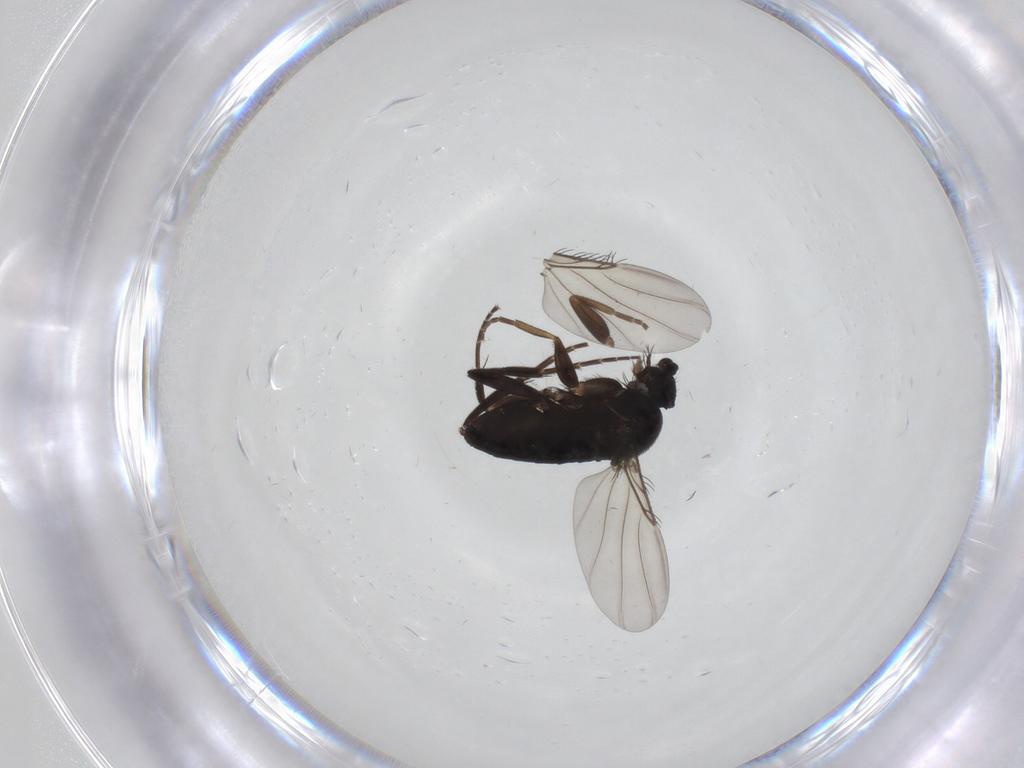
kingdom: Animalia
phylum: Arthropoda
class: Insecta
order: Diptera
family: Phoridae
